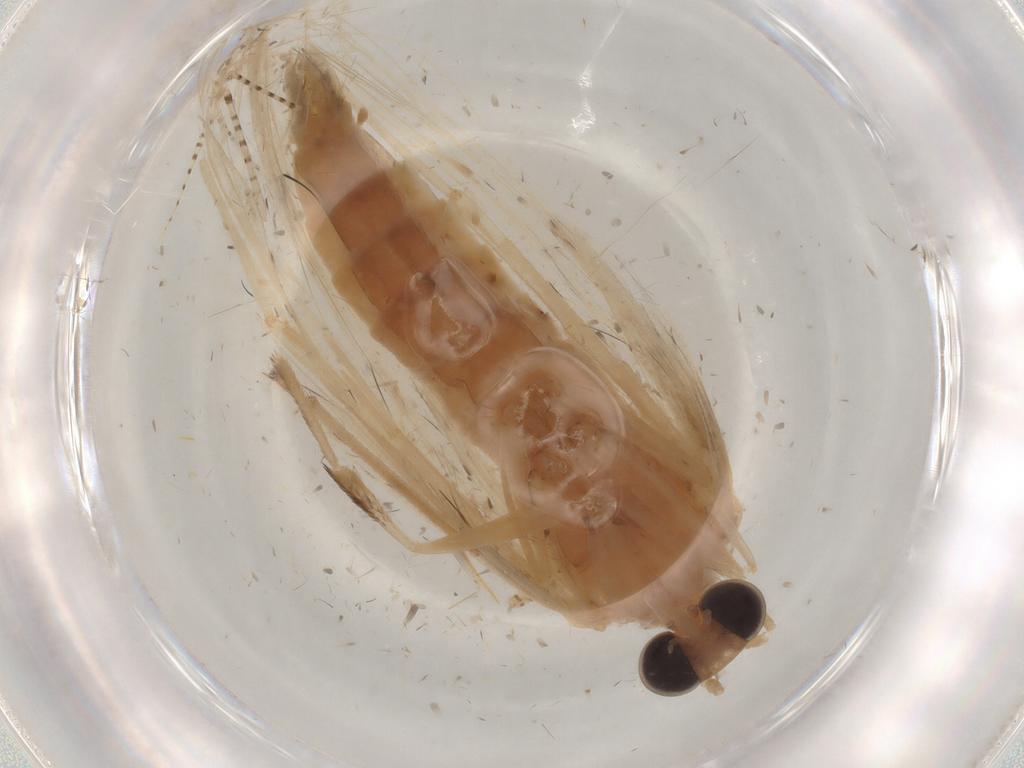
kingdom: Animalia
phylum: Arthropoda
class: Insecta
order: Lepidoptera
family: Gelechiidae
